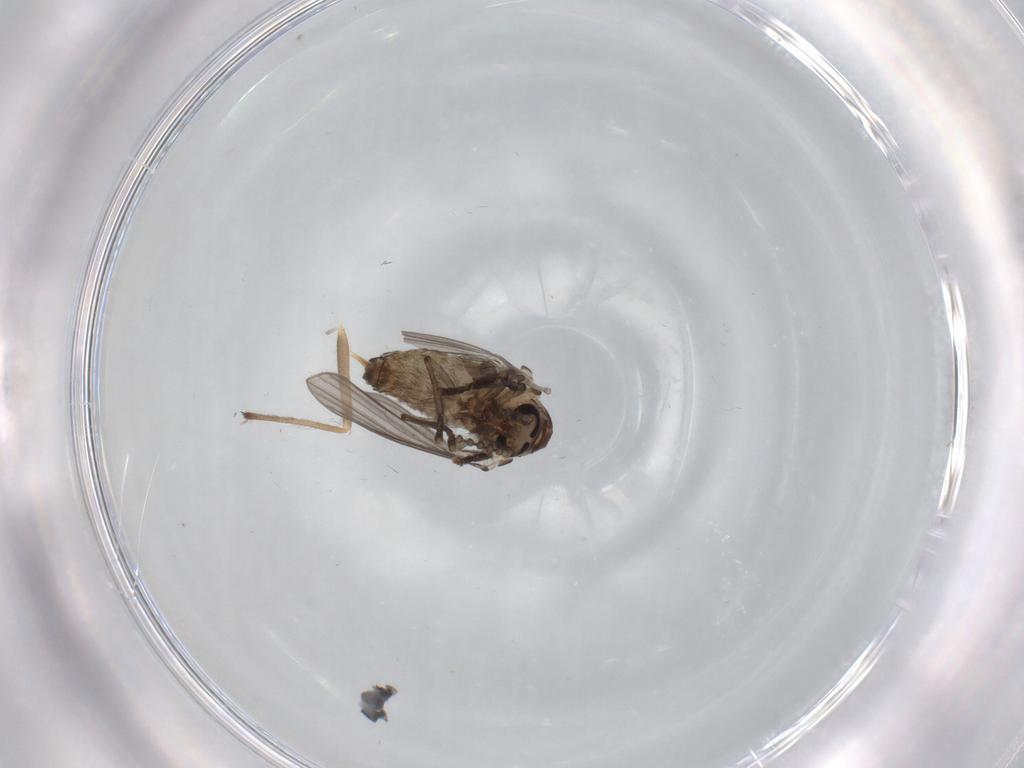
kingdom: Animalia
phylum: Arthropoda
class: Insecta
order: Diptera
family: Psychodidae
